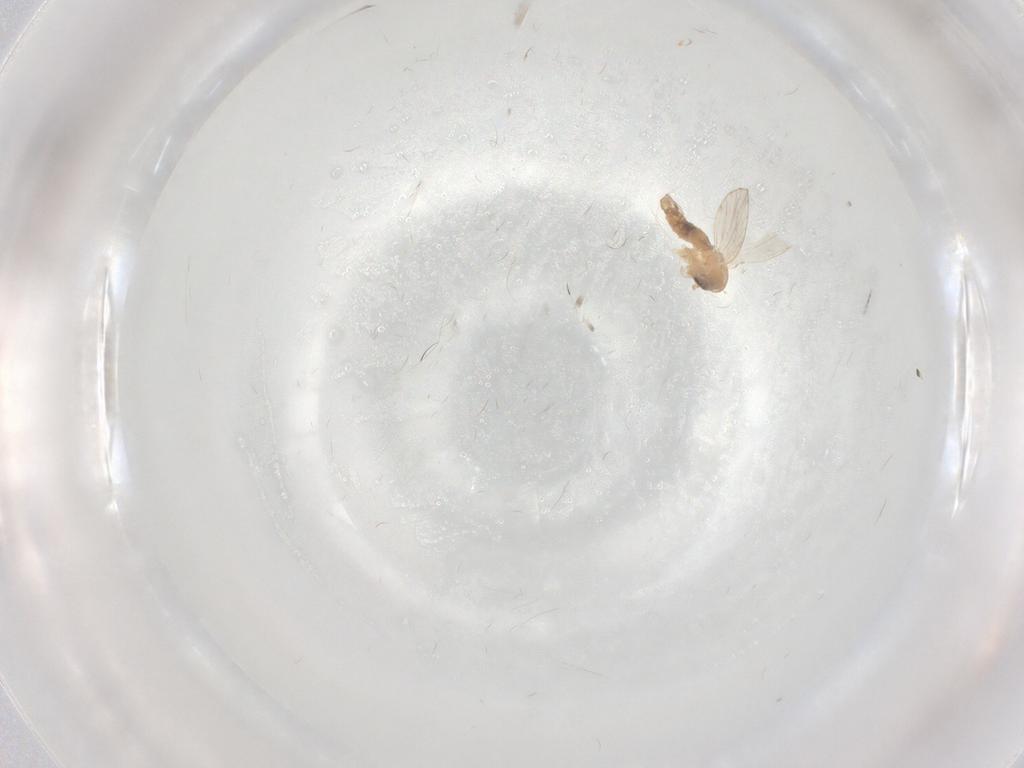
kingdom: Animalia
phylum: Arthropoda
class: Insecta
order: Diptera
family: Psychodidae
